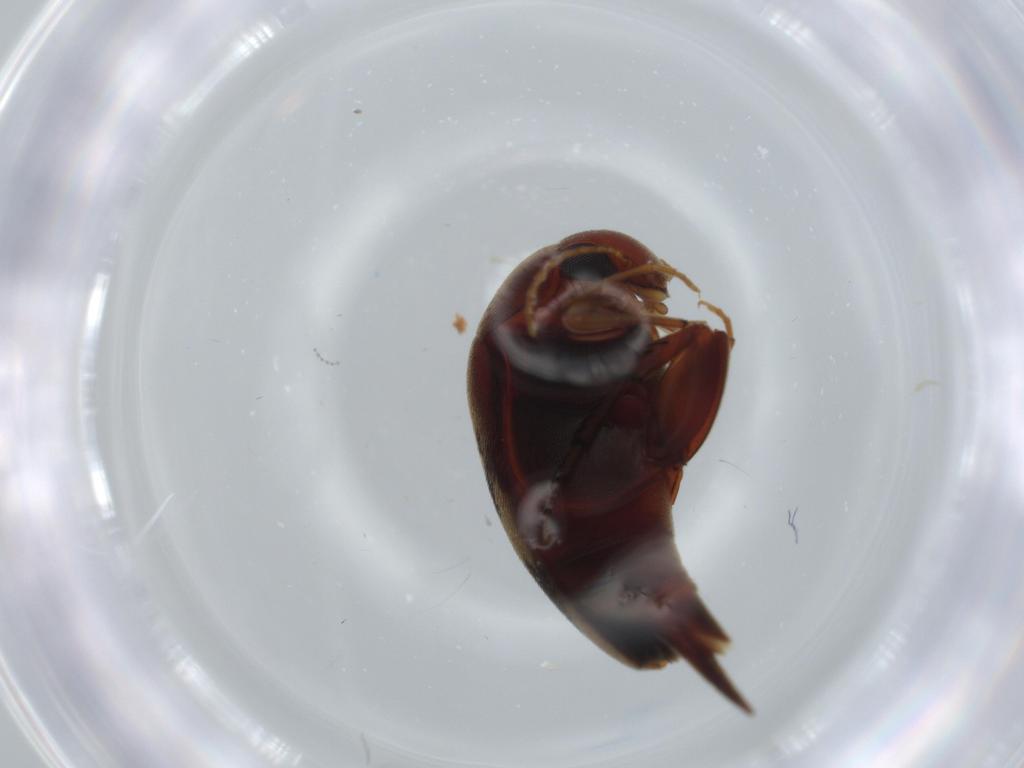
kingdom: Animalia
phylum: Arthropoda
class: Insecta
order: Coleoptera
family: Mordellidae
